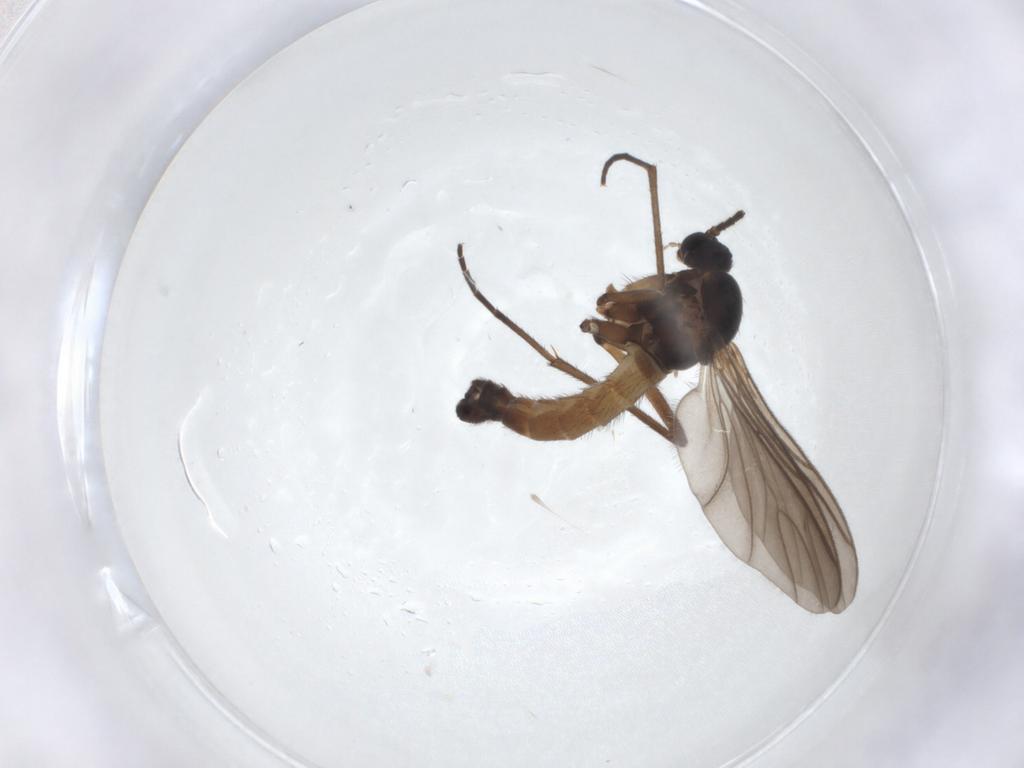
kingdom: Animalia
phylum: Arthropoda
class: Insecta
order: Diptera
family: Sciaridae
